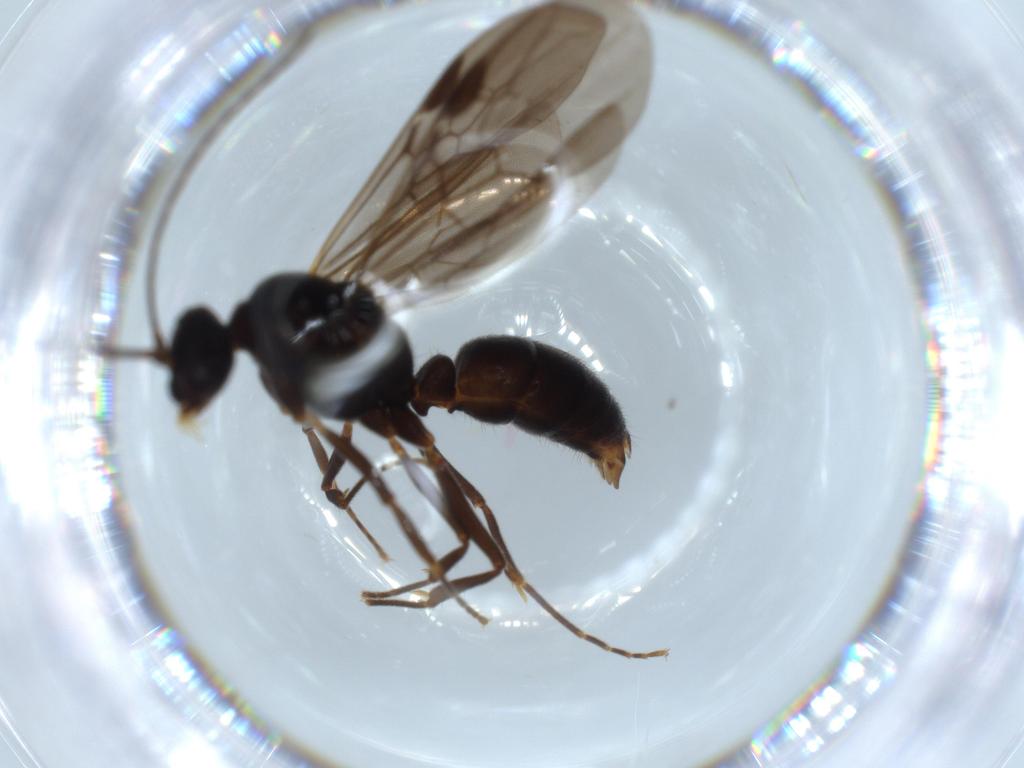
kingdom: Animalia
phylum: Arthropoda
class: Insecta
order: Hymenoptera
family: Formicidae
